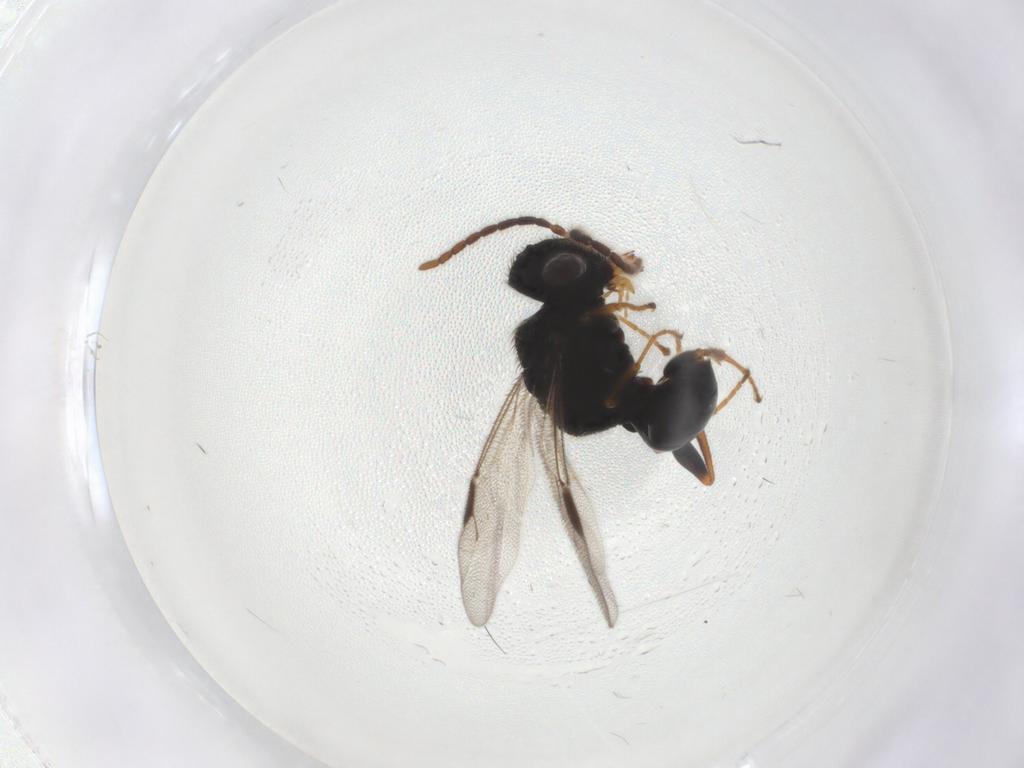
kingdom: Animalia
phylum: Arthropoda
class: Insecta
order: Hymenoptera
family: Dryinidae
